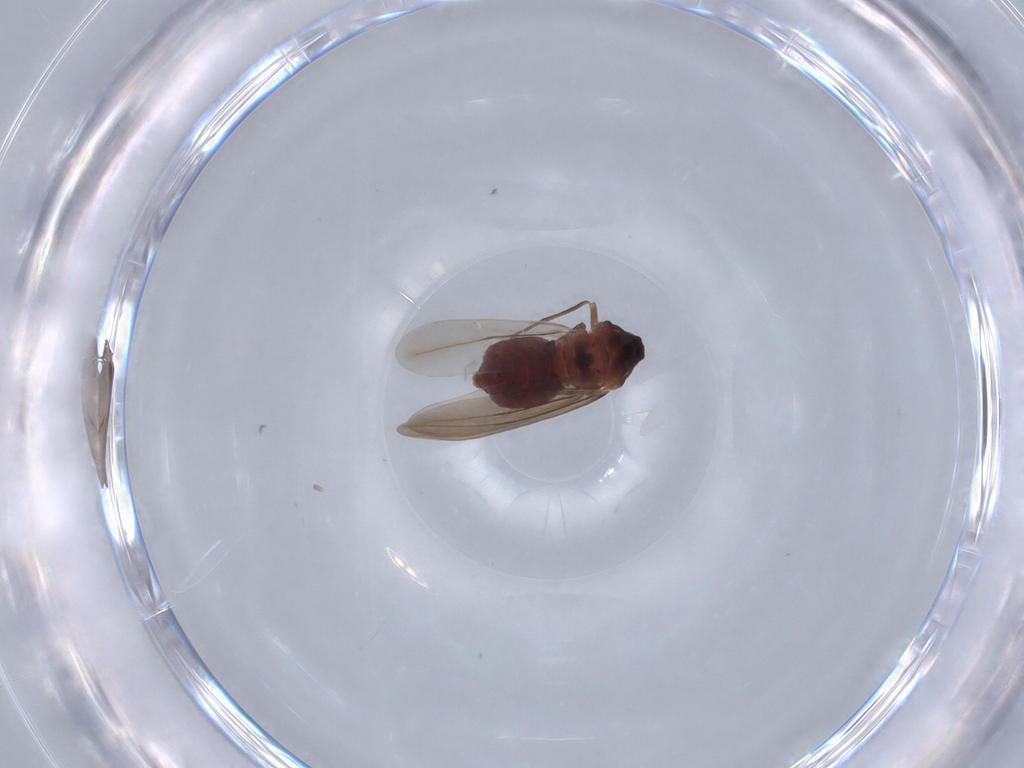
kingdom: Animalia
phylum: Arthropoda
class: Insecta
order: Hemiptera
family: Aleyrodidae
